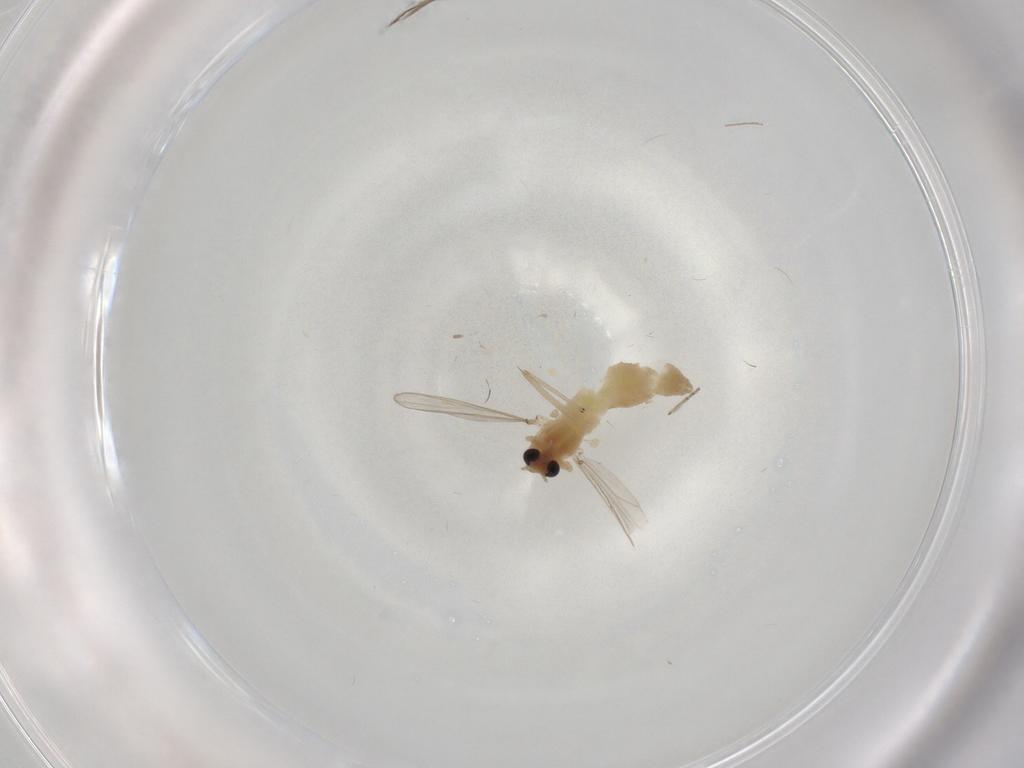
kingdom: Animalia
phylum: Arthropoda
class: Insecta
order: Diptera
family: Chironomidae
